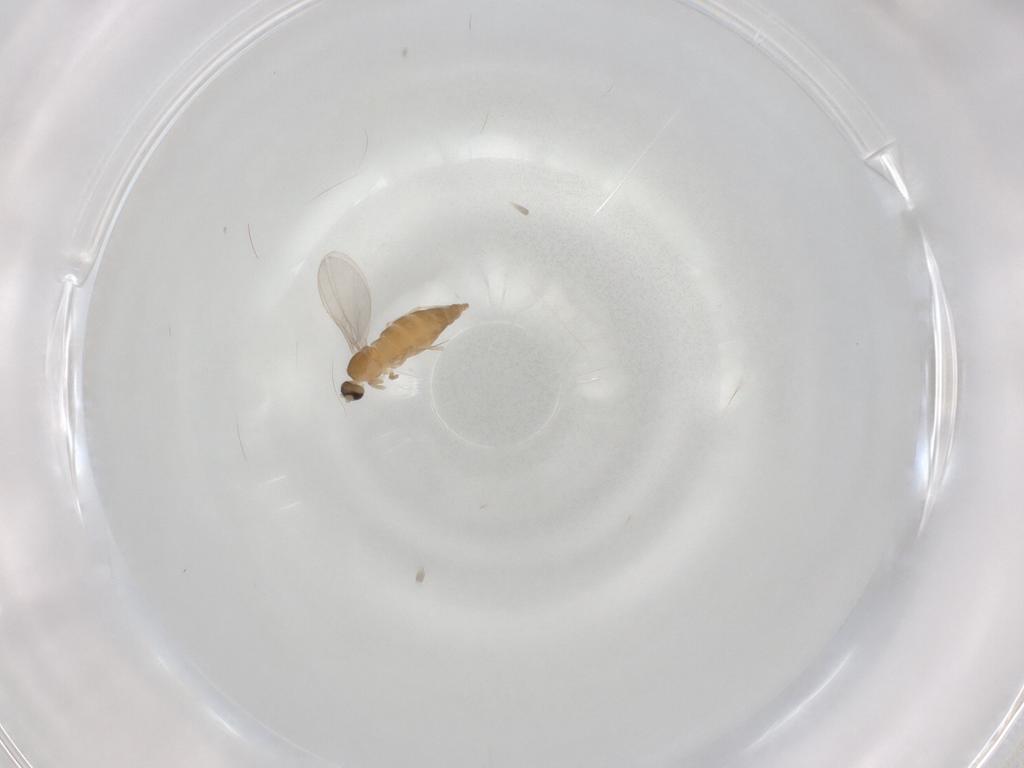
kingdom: Animalia
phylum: Arthropoda
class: Insecta
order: Diptera
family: Cecidomyiidae
